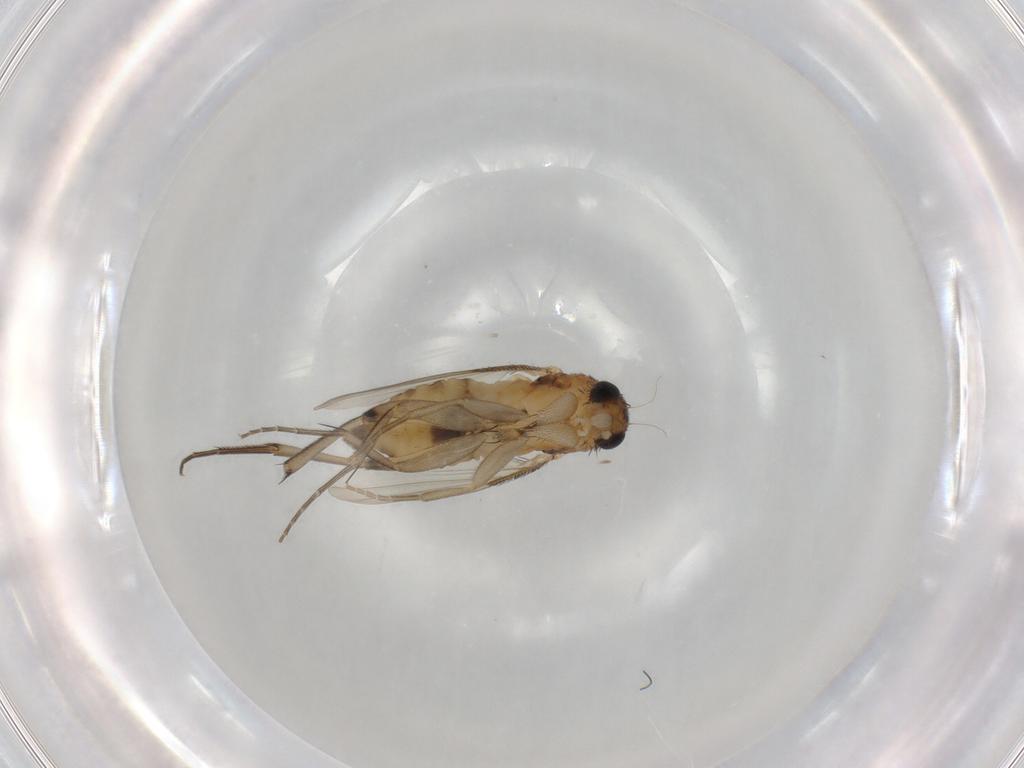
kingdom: Animalia
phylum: Arthropoda
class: Insecta
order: Diptera
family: Phoridae
